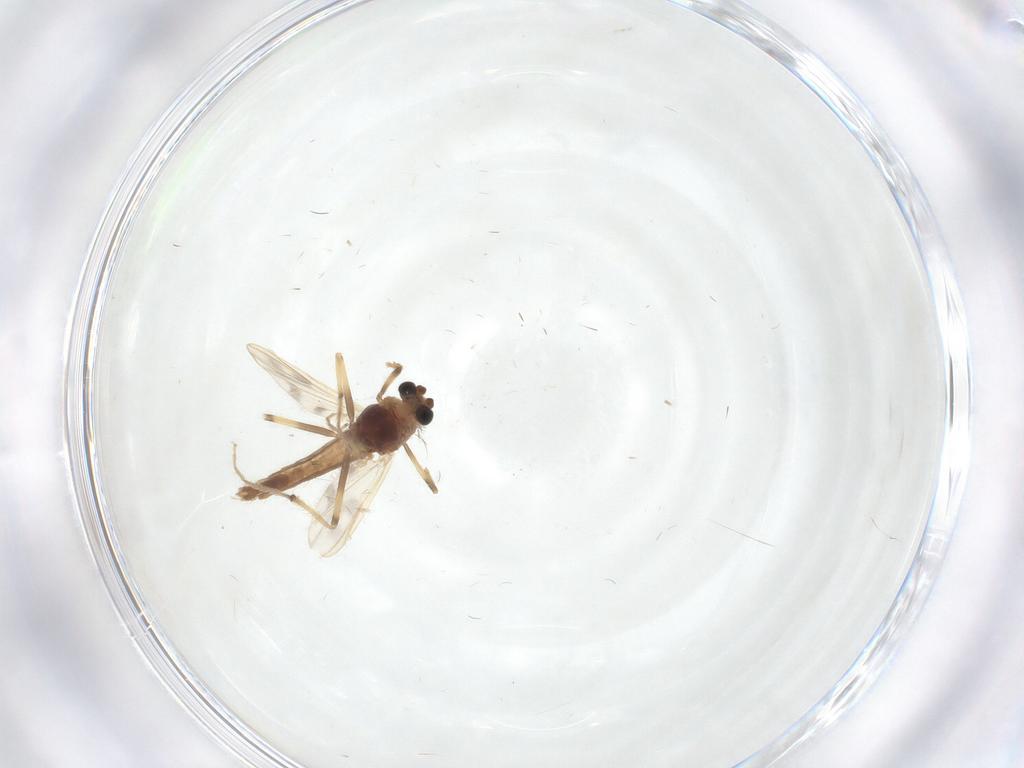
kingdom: Animalia
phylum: Arthropoda
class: Insecta
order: Diptera
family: Chironomidae
